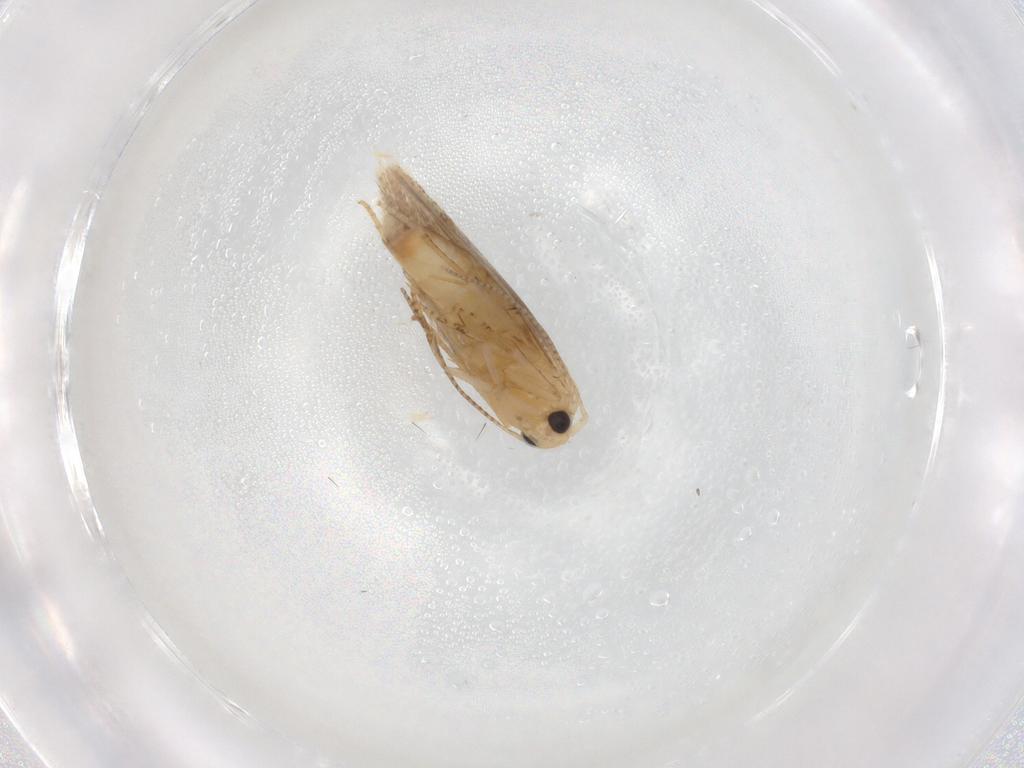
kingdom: Animalia
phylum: Arthropoda
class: Insecta
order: Lepidoptera
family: Bucculatricidae
